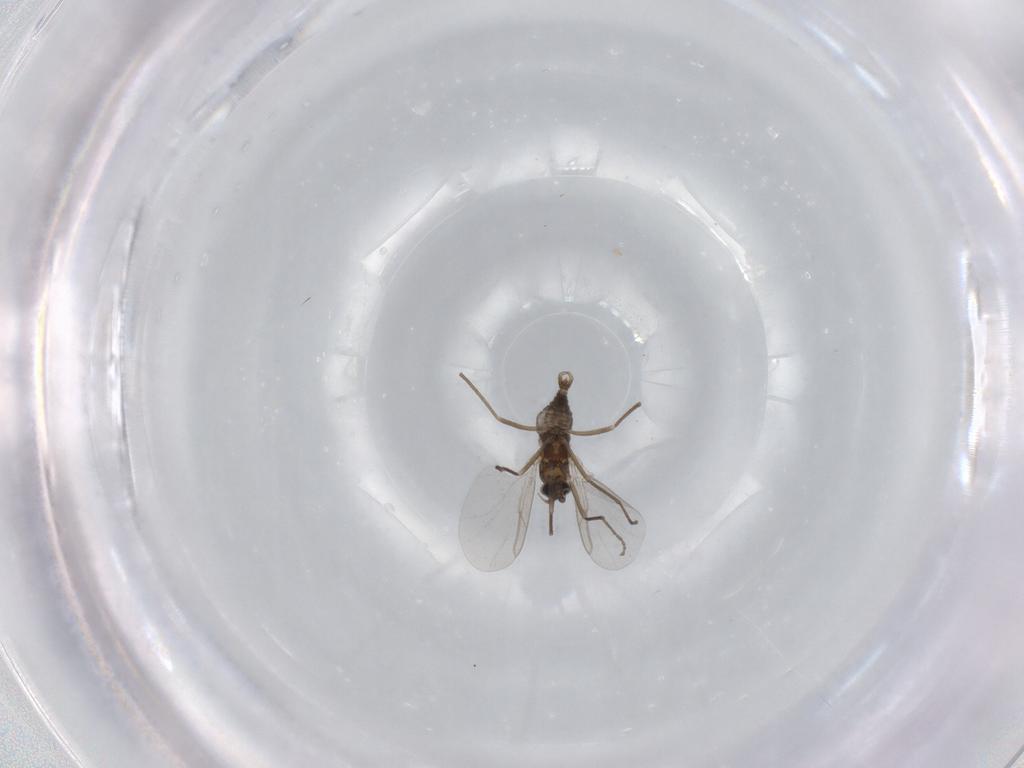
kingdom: Animalia
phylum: Arthropoda
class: Insecta
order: Diptera
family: Cecidomyiidae
